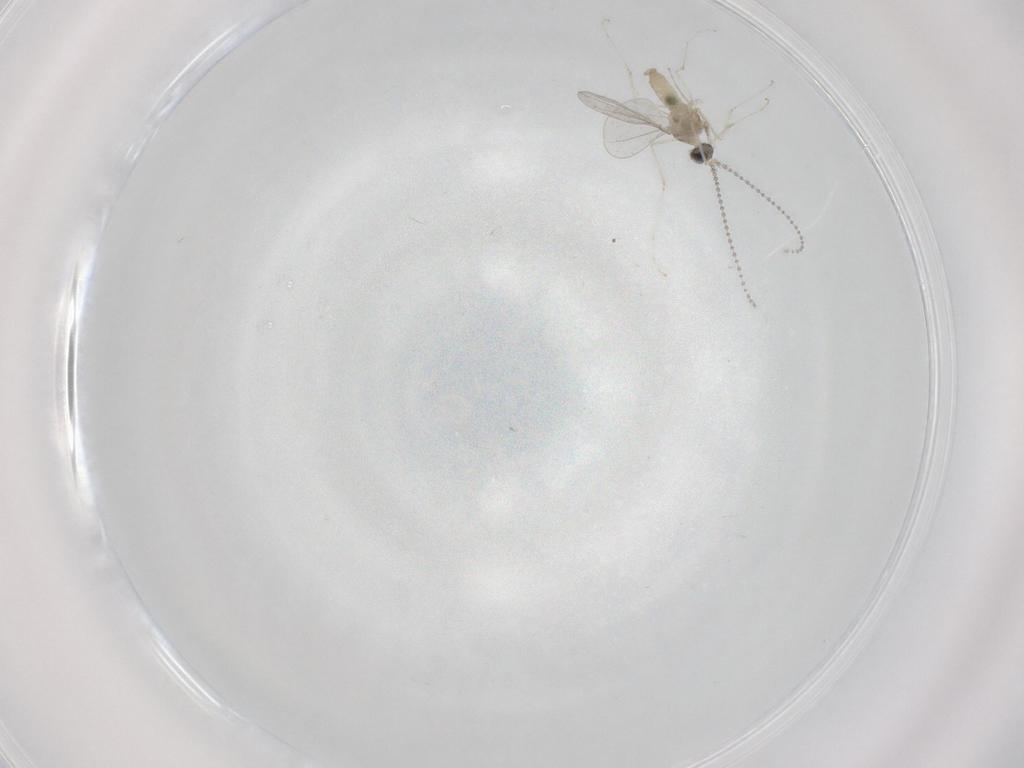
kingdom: Animalia
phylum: Arthropoda
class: Insecta
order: Diptera
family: Cecidomyiidae
